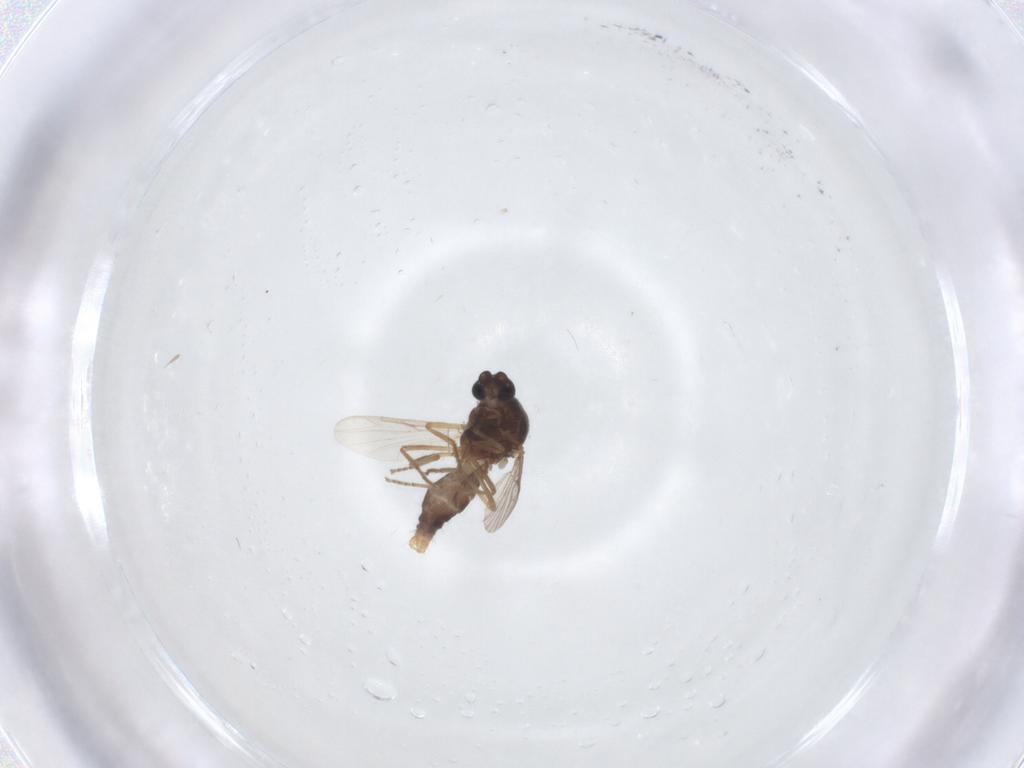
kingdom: Animalia
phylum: Arthropoda
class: Insecta
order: Diptera
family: Ceratopogonidae
